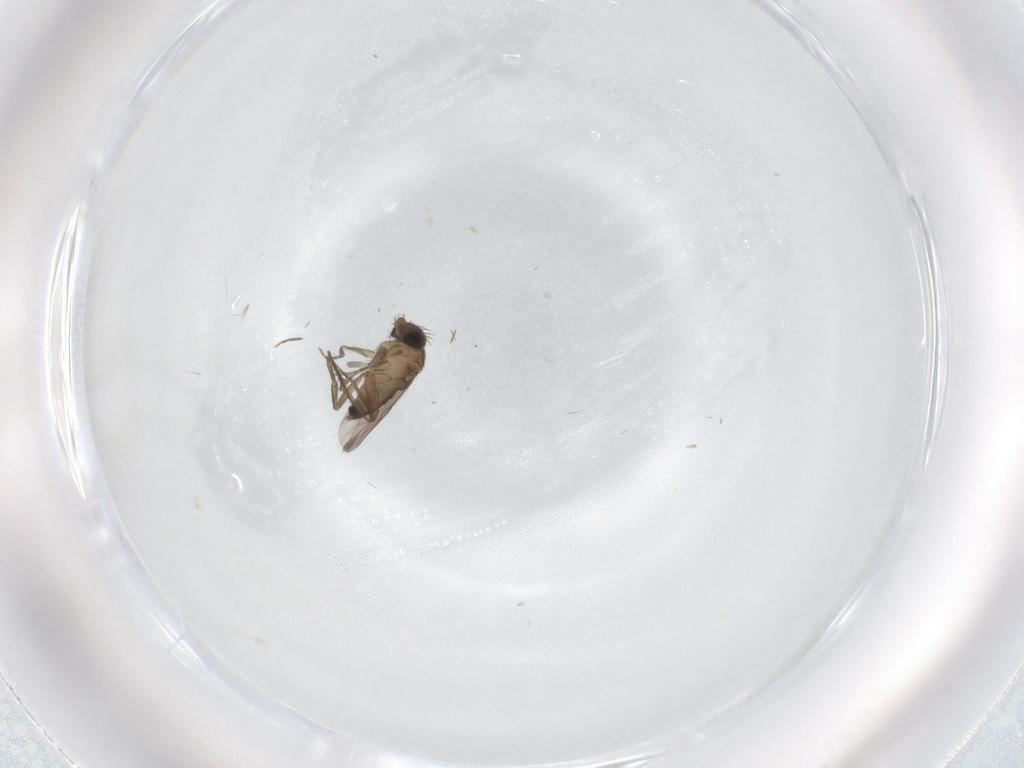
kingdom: Animalia
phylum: Arthropoda
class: Insecta
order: Diptera
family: Phoridae
